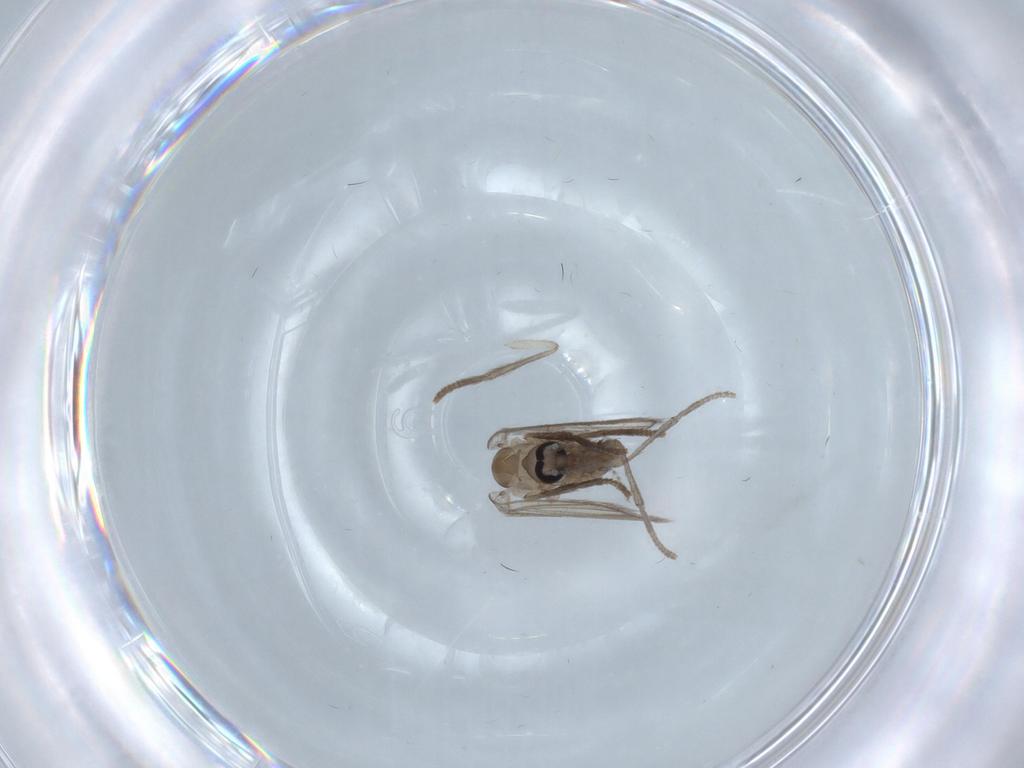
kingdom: Animalia
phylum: Arthropoda
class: Insecta
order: Diptera
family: Psychodidae
